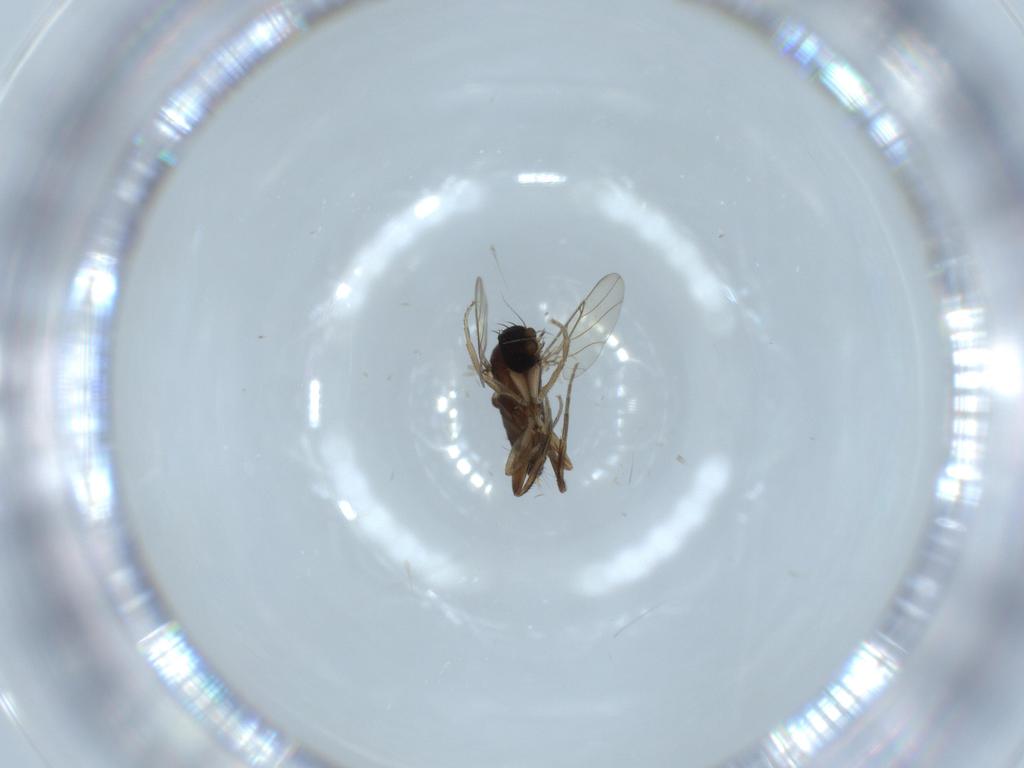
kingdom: Animalia
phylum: Arthropoda
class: Insecta
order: Diptera
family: Phoridae
